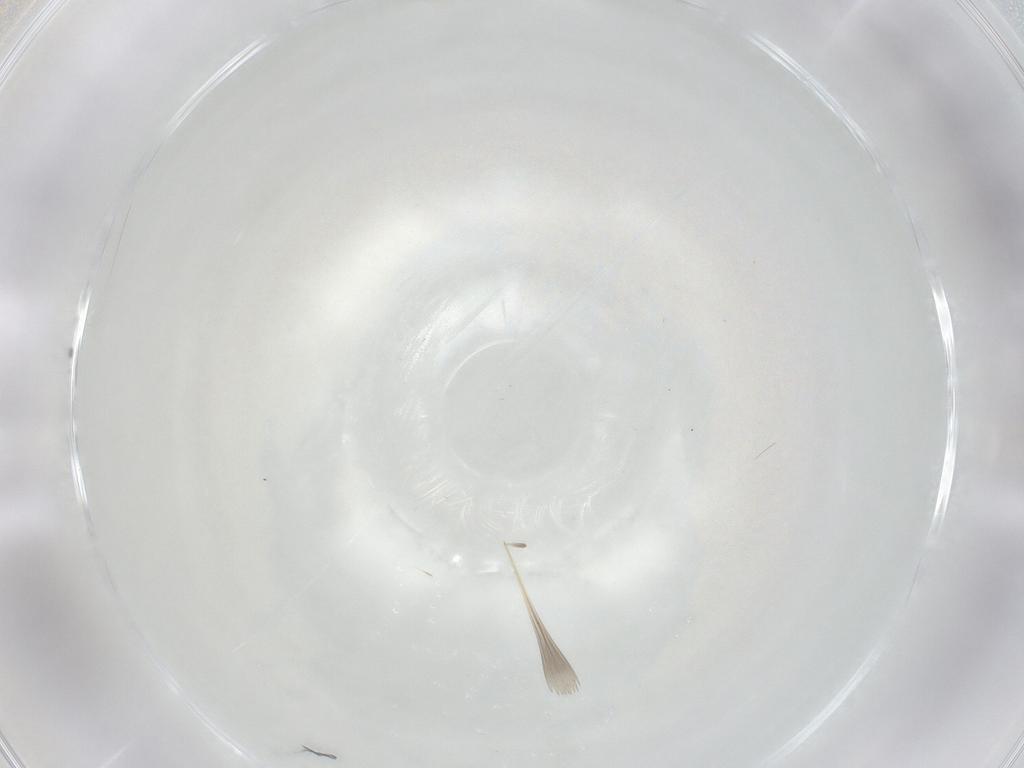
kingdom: Animalia
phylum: Arthropoda
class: Insecta
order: Diptera
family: Cecidomyiidae
